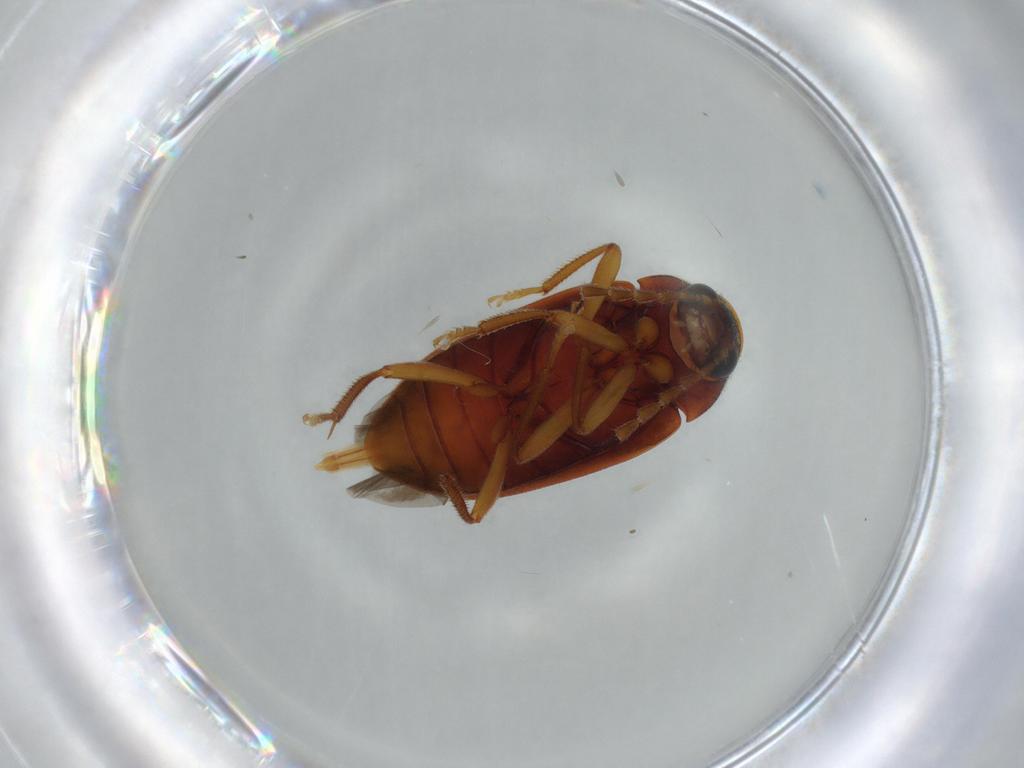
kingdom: Animalia
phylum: Arthropoda
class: Insecta
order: Coleoptera
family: Ptilodactylidae
